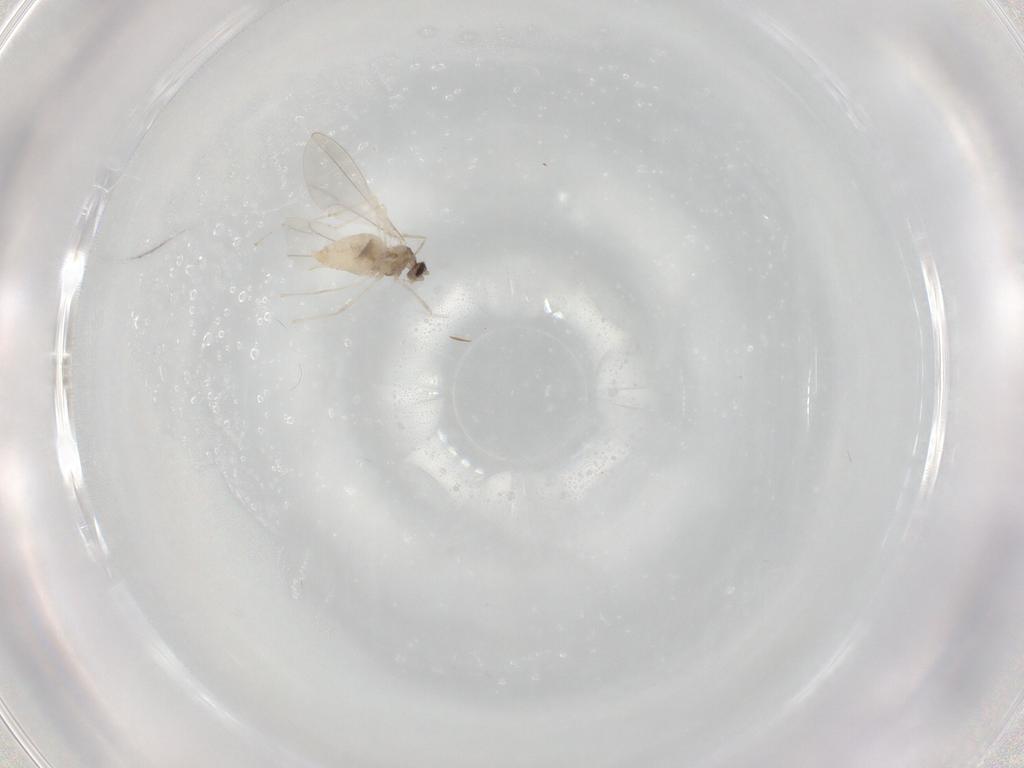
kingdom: Animalia
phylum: Arthropoda
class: Insecta
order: Diptera
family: Cecidomyiidae
